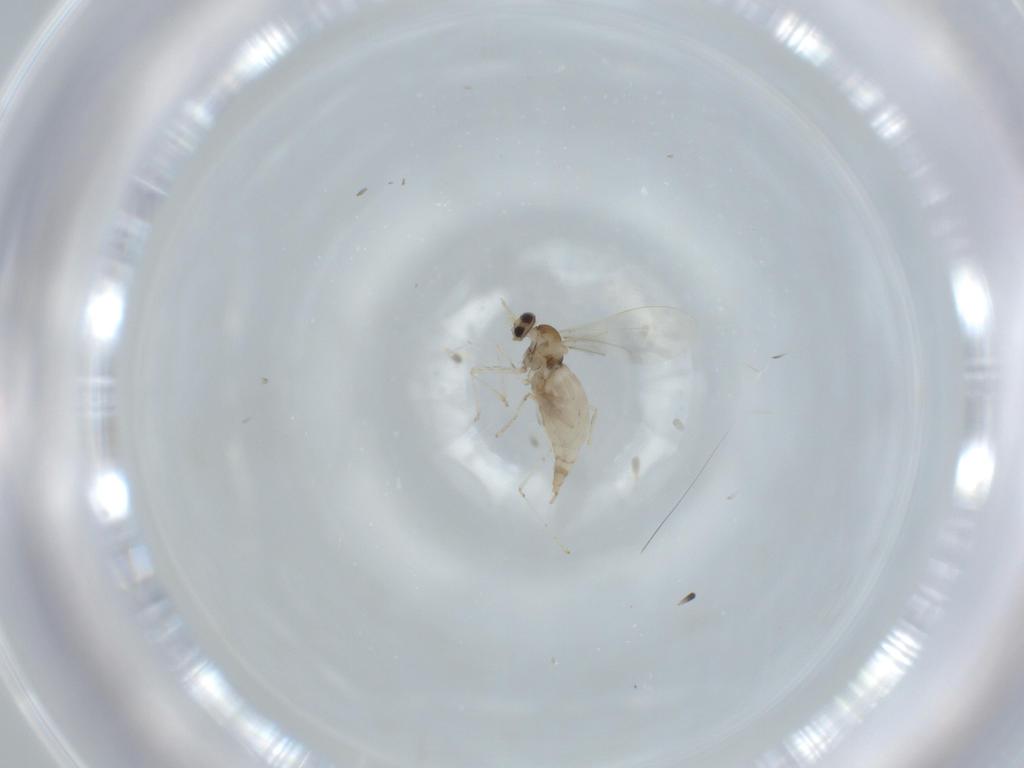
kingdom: Animalia
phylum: Arthropoda
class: Insecta
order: Diptera
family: Cecidomyiidae
